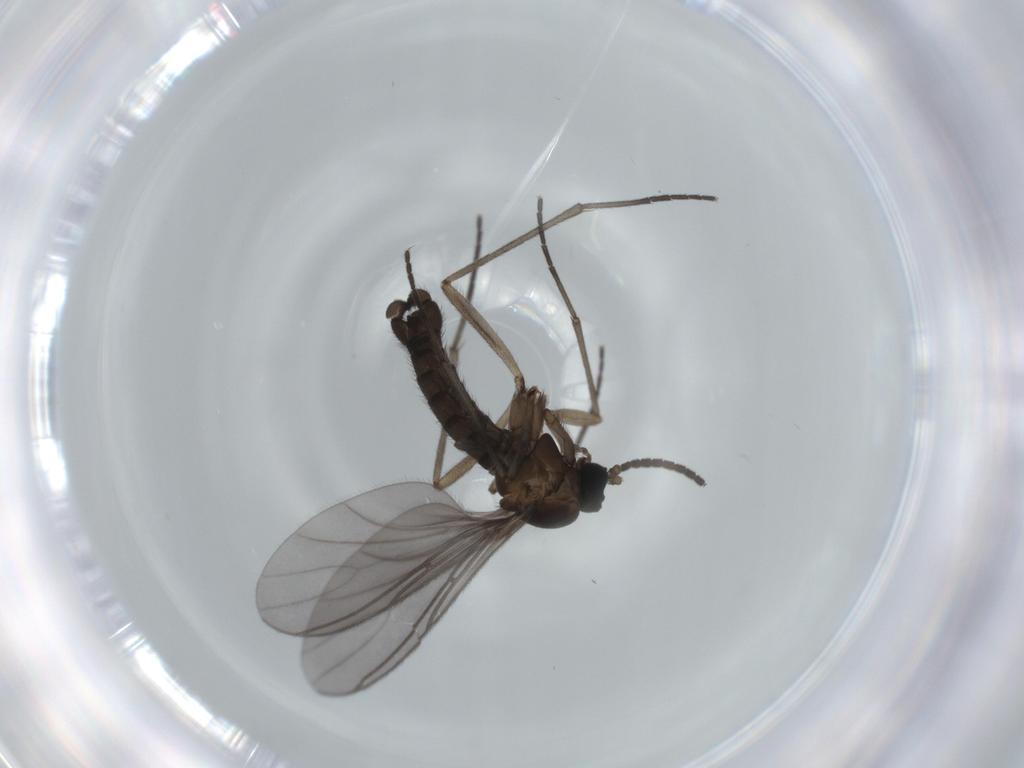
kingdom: Animalia
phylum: Arthropoda
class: Insecta
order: Diptera
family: Sciaridae
